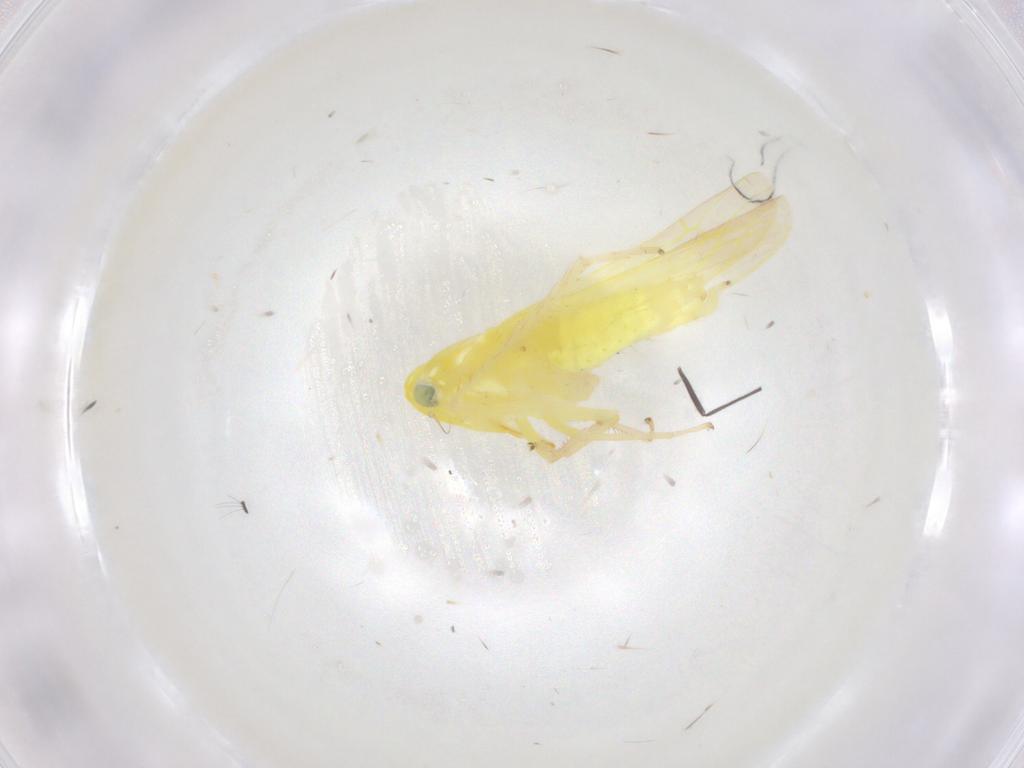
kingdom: Animalia
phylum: Arthropoda
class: Insecta
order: Hemiptera
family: Cicadellidae
